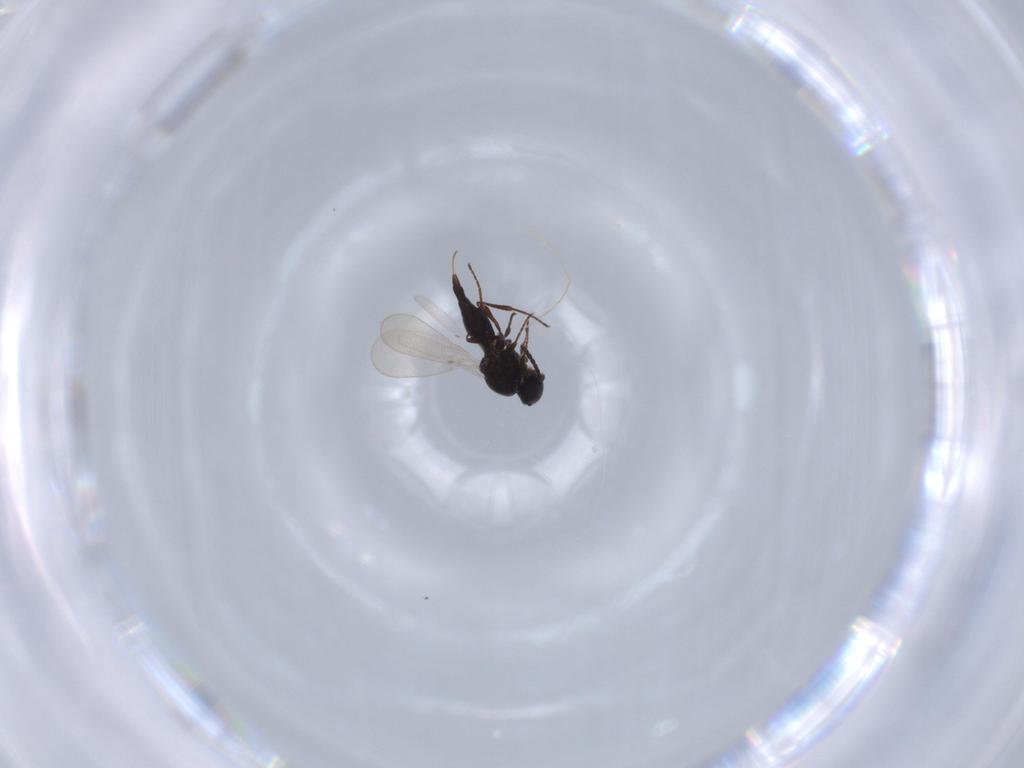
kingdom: Animalia
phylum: Arthropoda
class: Insecta
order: Diptera
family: Mythicomyiidae
